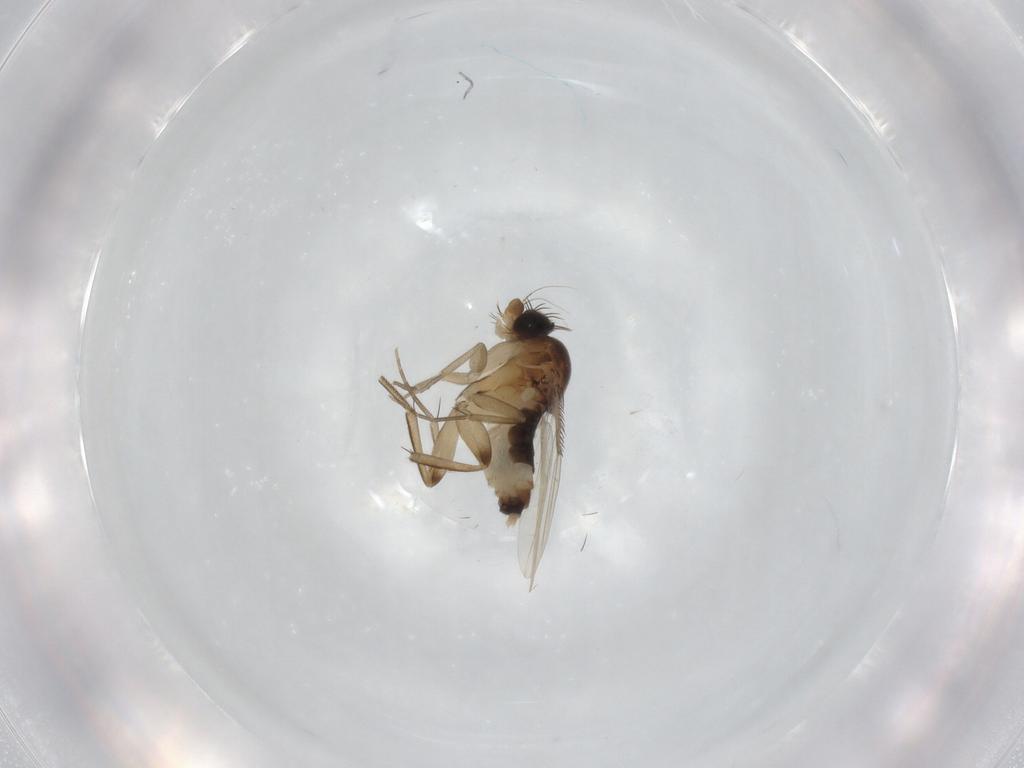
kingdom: Animalia
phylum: Arthropoda
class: Insecta
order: Diptera
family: Phoridae
